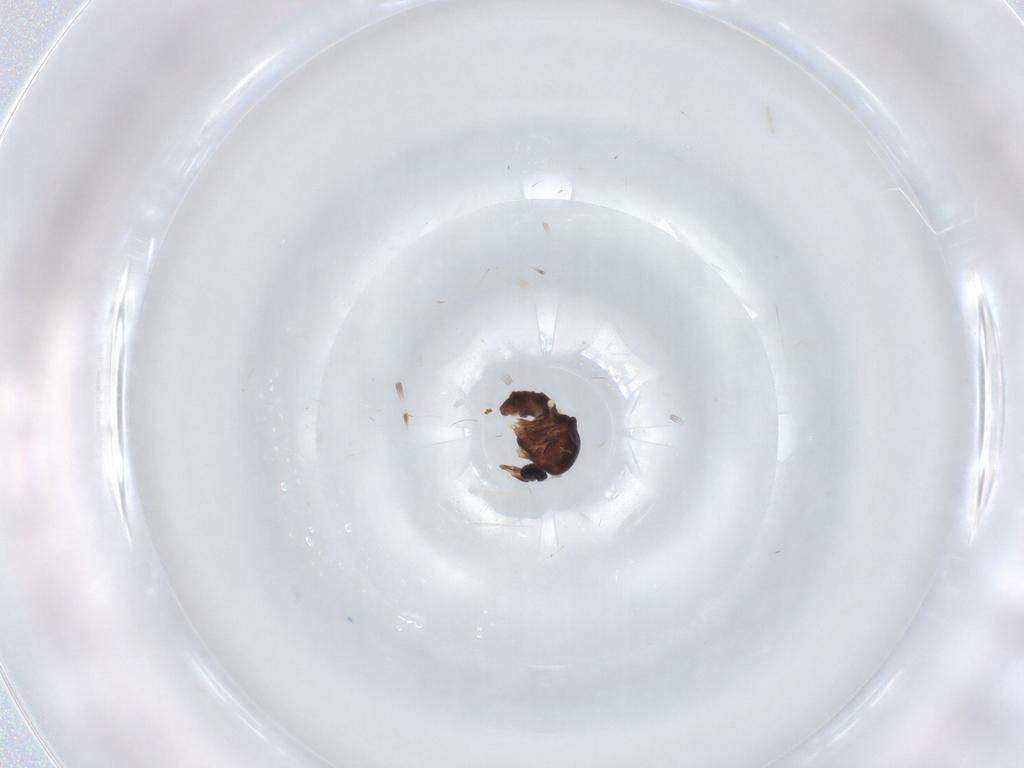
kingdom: Animalia
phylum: Arthropoda
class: Insecta
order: Diptera
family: Ceratopogonidae
